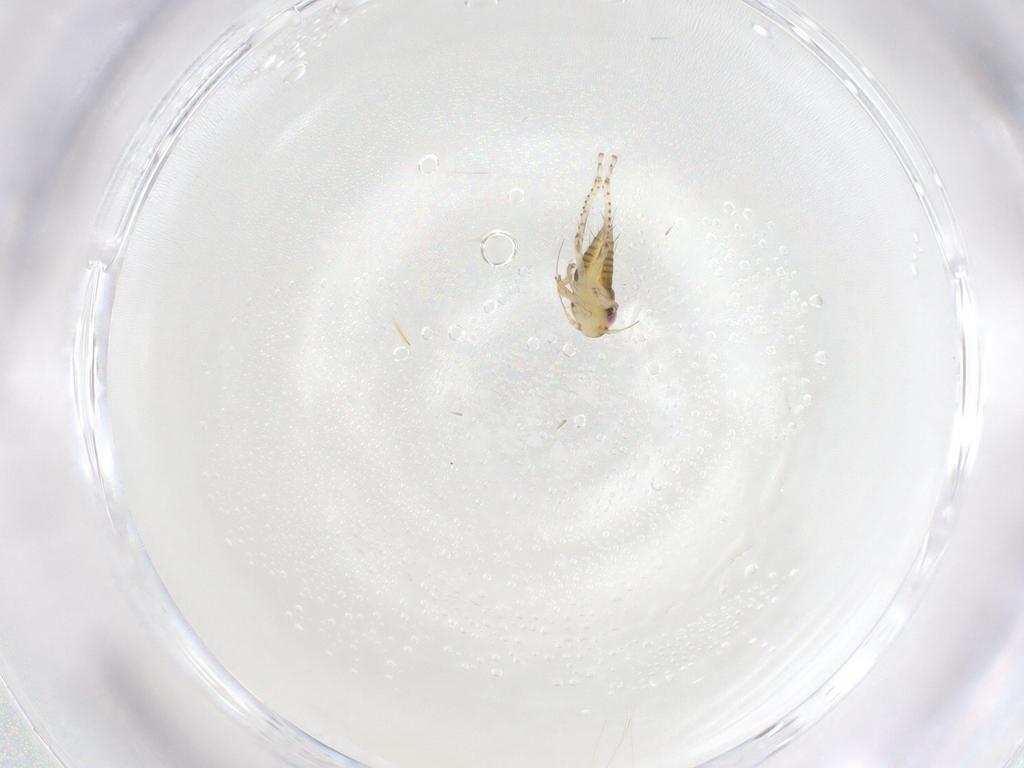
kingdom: Animalia
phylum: Arthropoda
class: Insecta
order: Hemiptera
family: Cicadellidae
